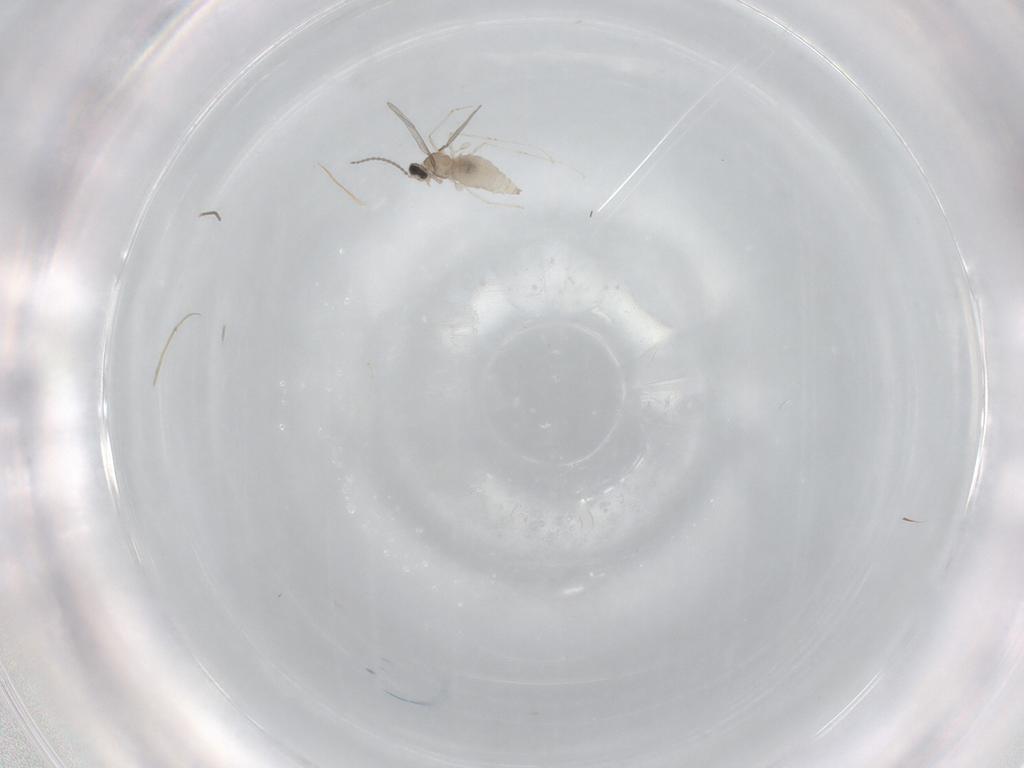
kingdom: Animalia
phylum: Arthropoda
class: Insecta
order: Diptera
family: Cecidomyiidae
